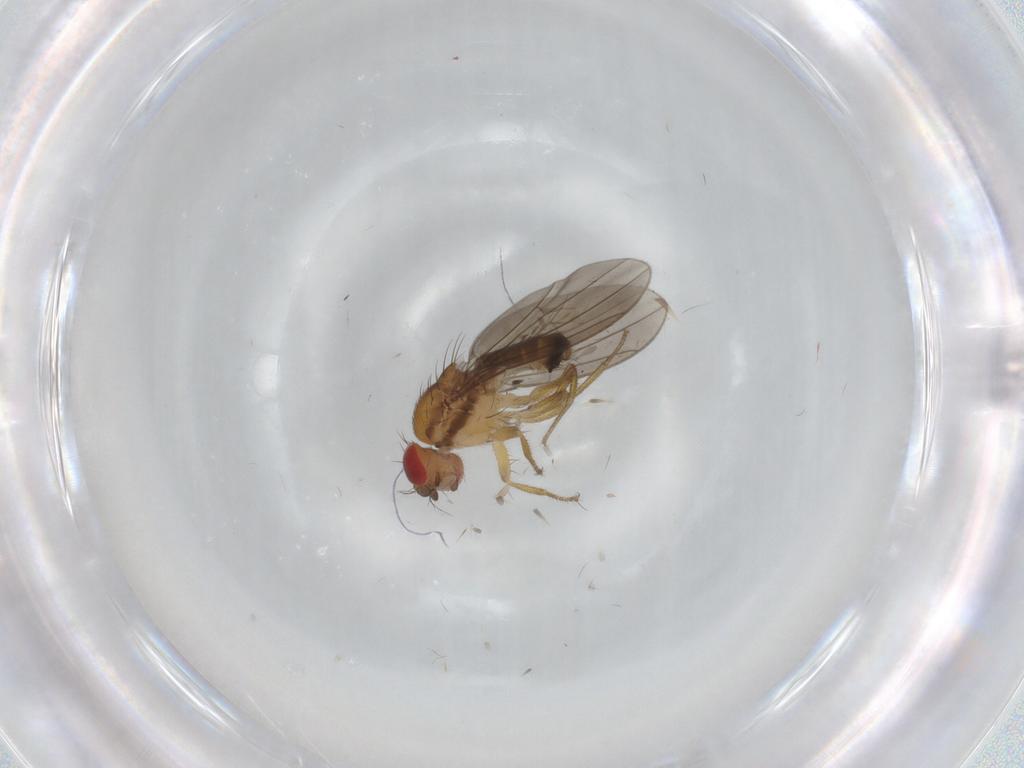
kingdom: Animalia
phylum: Arthropoda
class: Insecta
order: Diptera
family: Drosophilidae
